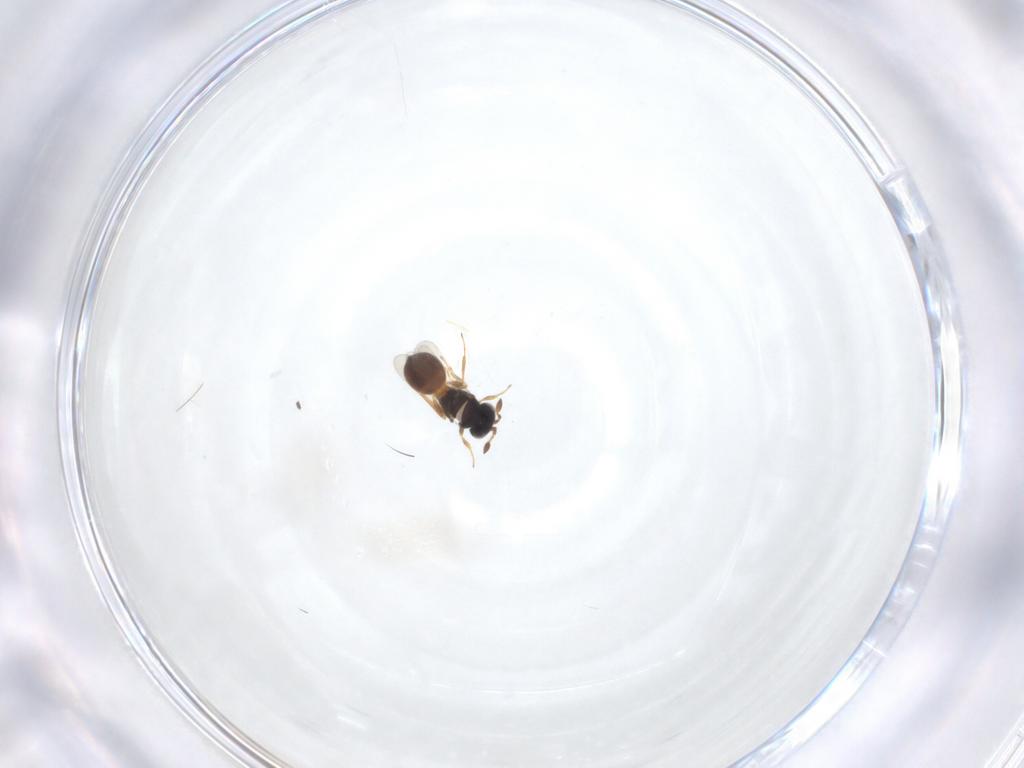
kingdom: Animalia
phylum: Arthropoda
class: Insecta
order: Hymenoptera
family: Scelionidae
